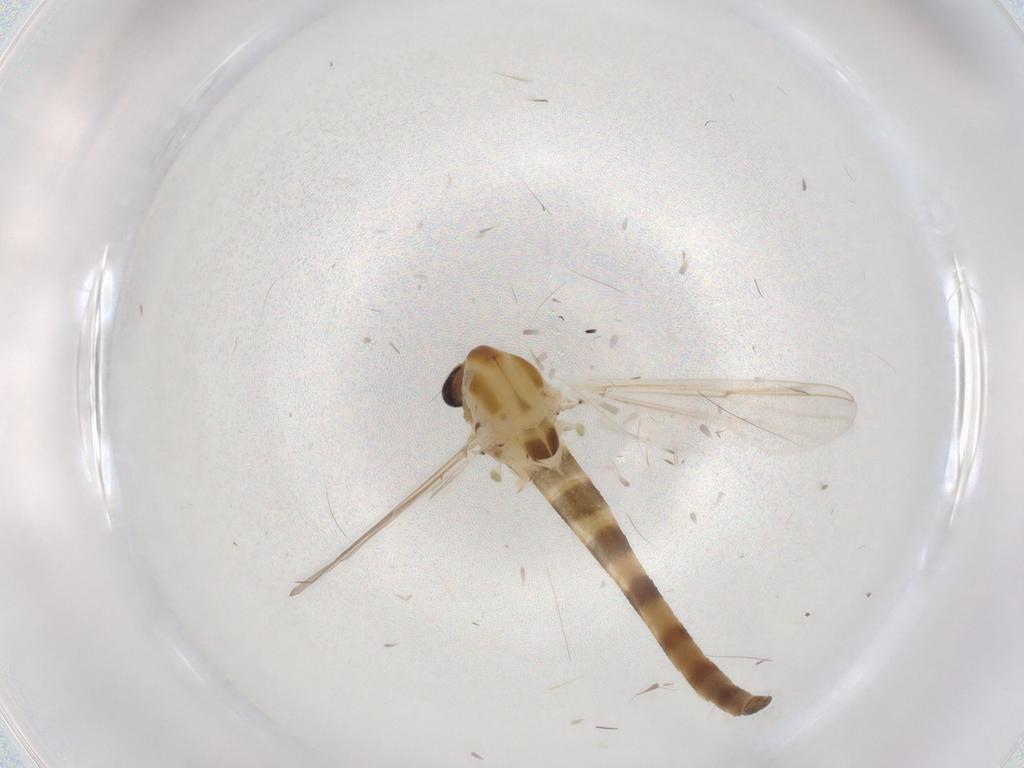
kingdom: Animalia
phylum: Arthropoda
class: Insecta
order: Diptera
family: Chironomidae
